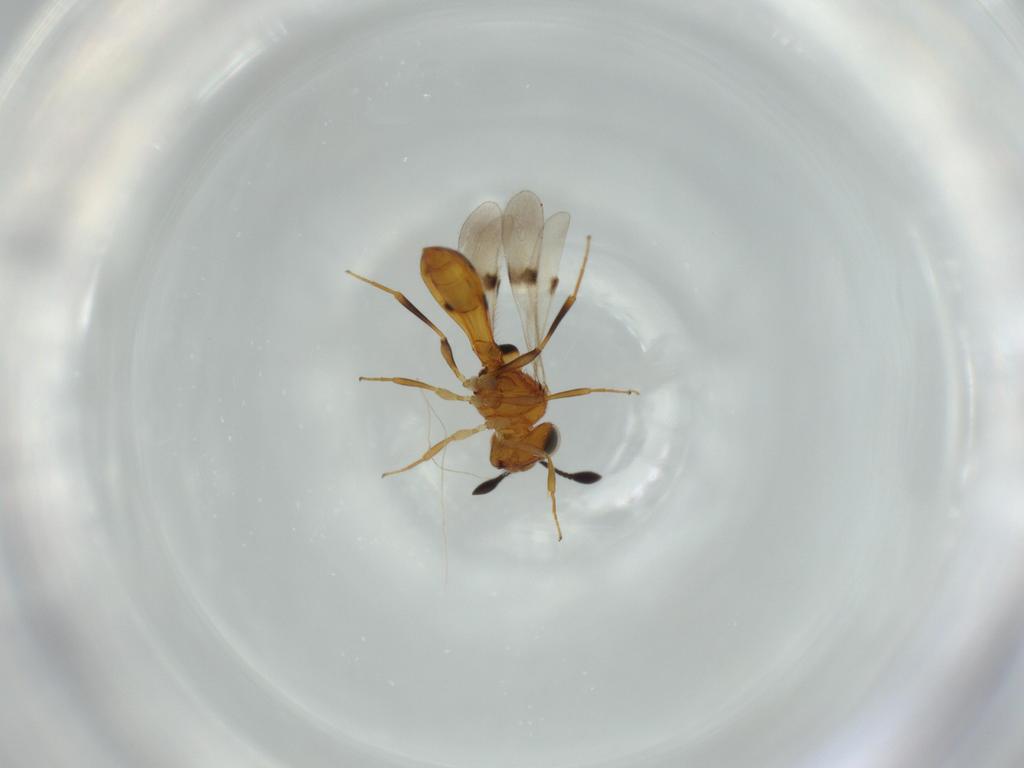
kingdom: Animalia
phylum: Arthropoda
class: Insecta
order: Hymenoptera
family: Scelionidae
